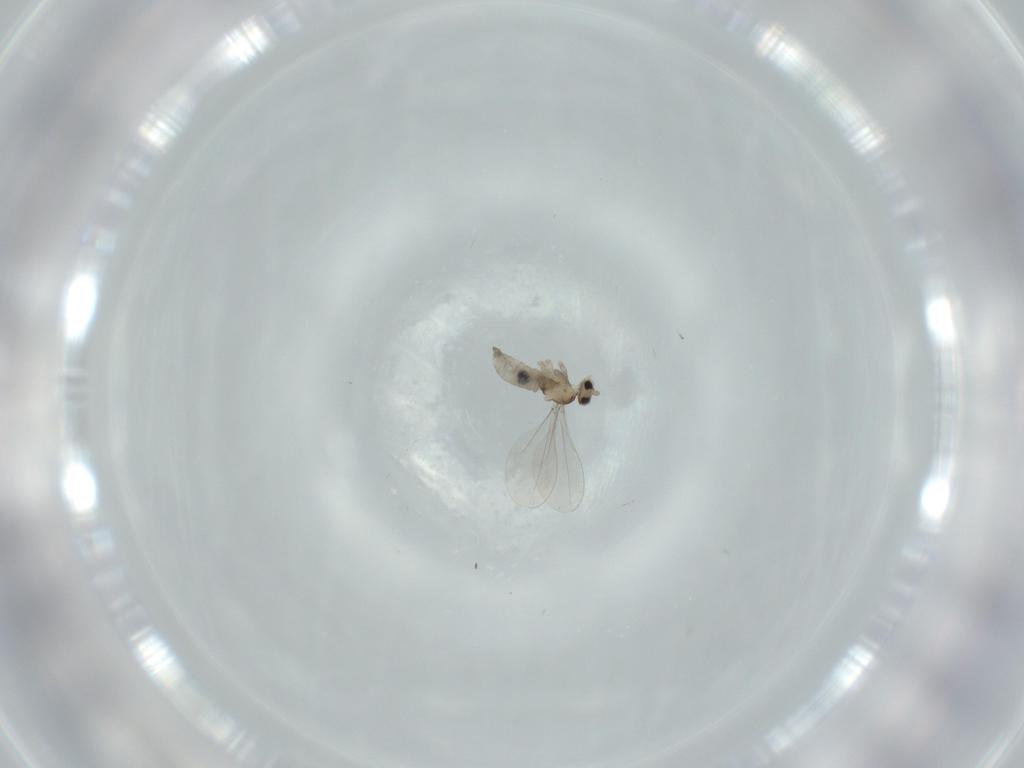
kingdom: Animalia
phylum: Arthropoda
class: Insecta
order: Diptera
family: Cecidomyiidae
